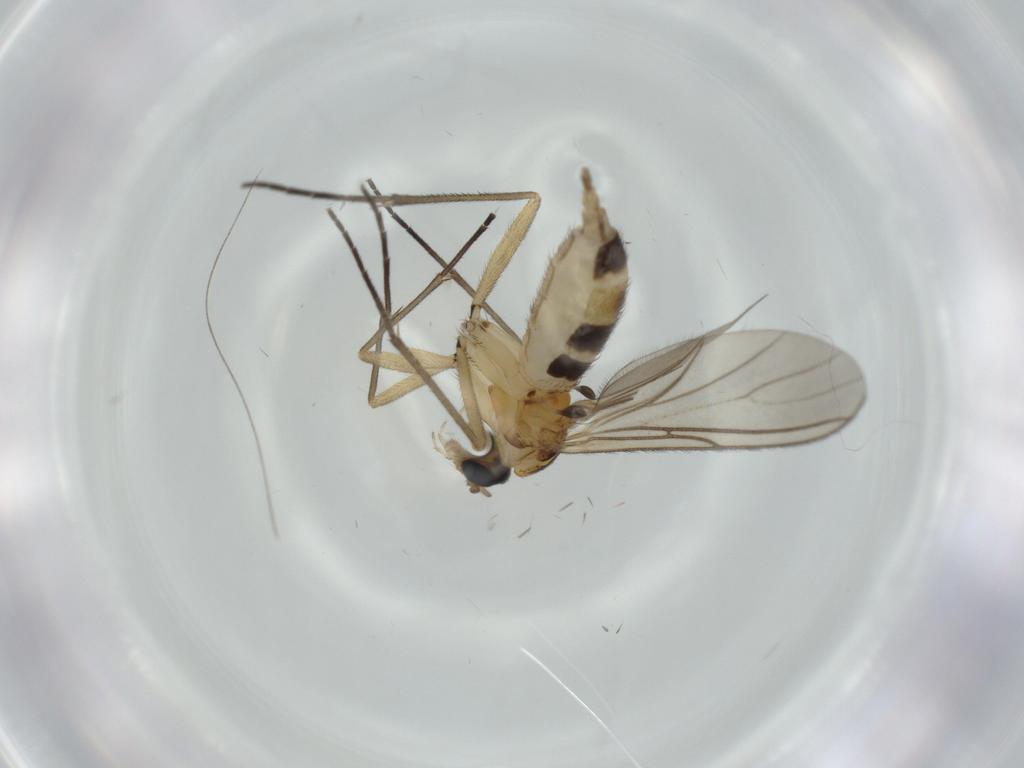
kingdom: Animalia
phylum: Arthropoda
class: Insecta
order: Diptera
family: Sciaridae
